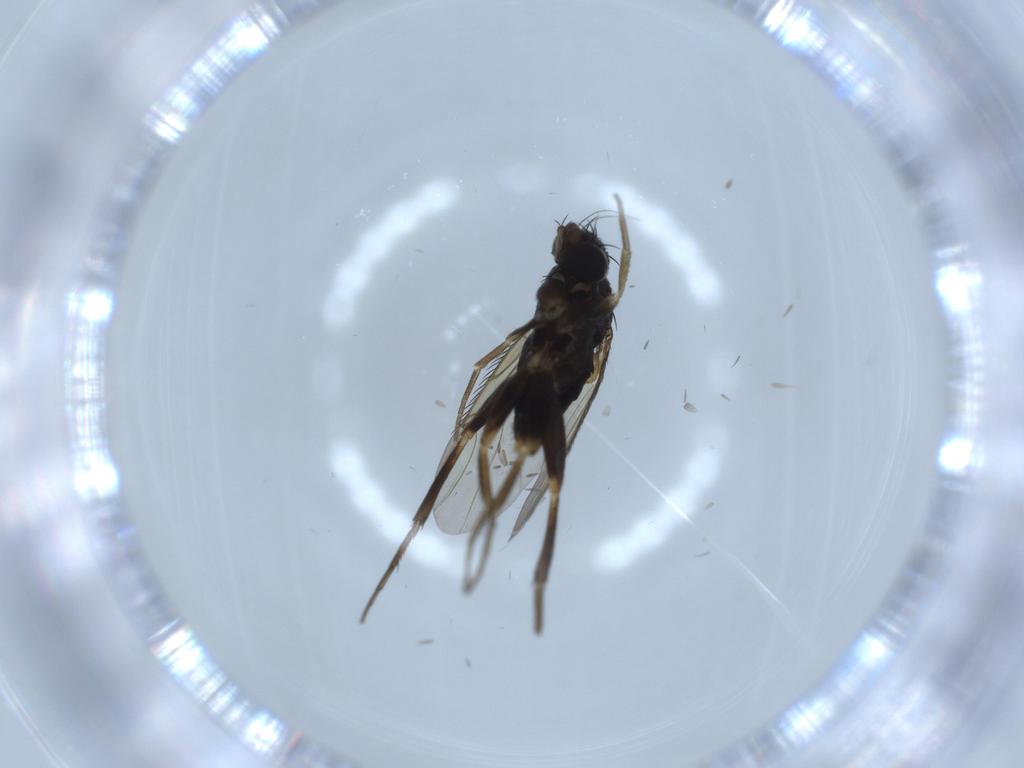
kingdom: Animalia
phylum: Arthropoda
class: Insecta
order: Diptera
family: Phoridae
